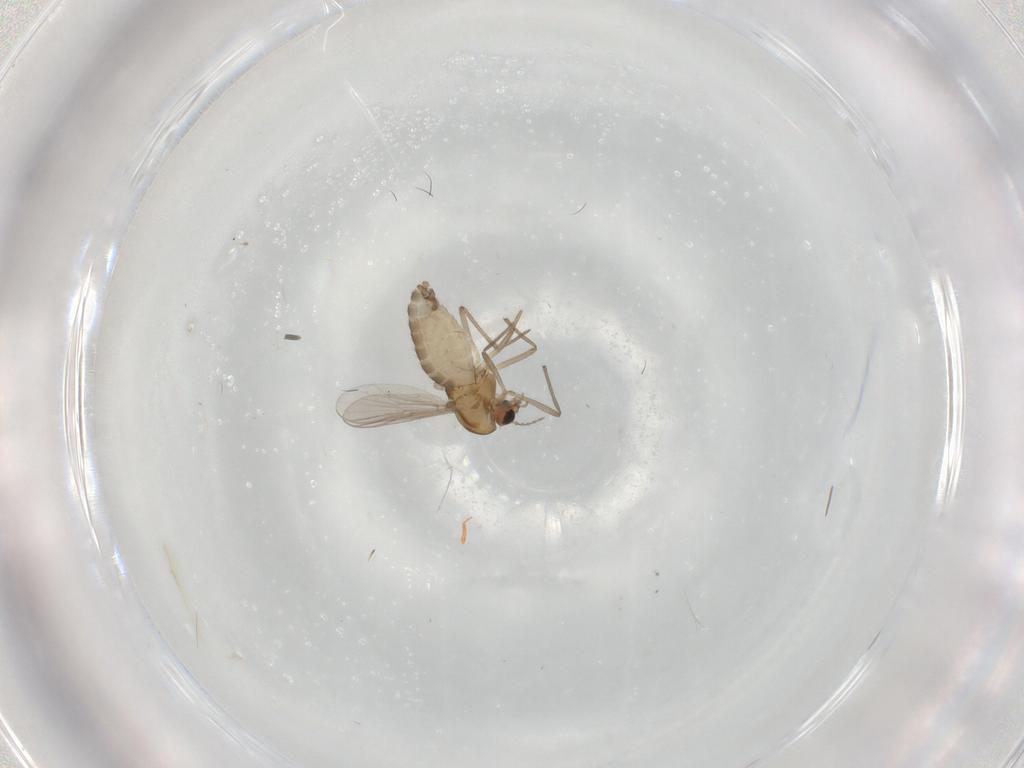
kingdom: Animalia
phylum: Arthropoda
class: Insecta
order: Diptera
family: Chironomidae
